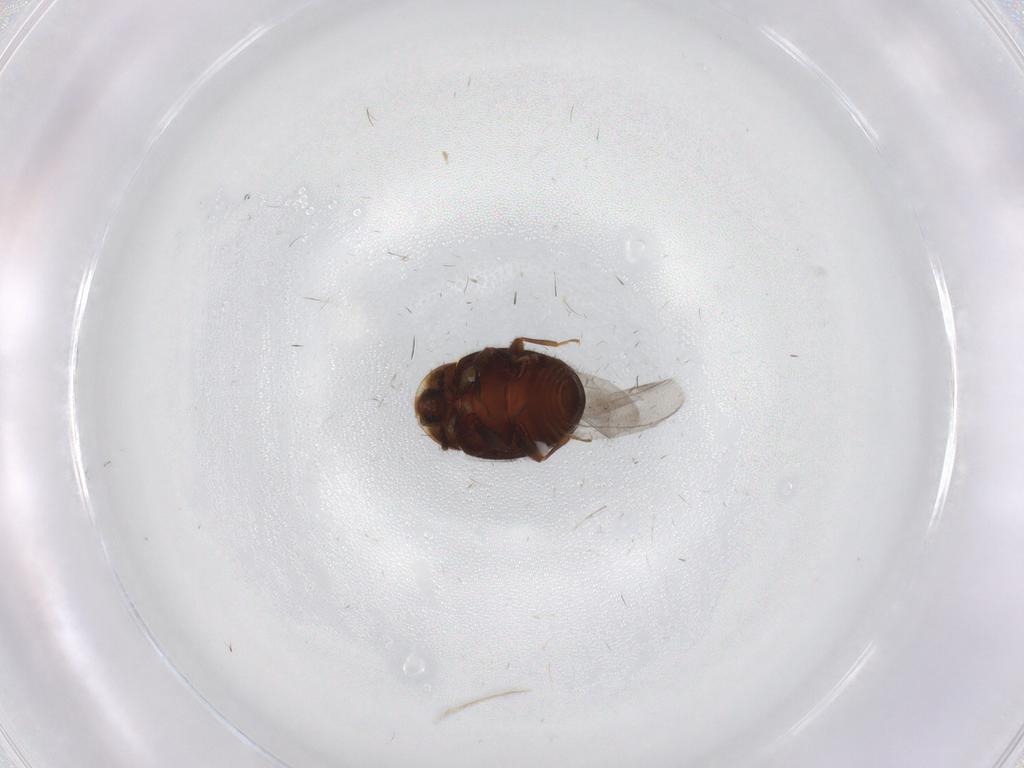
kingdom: Animalia
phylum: Arthropoda
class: Insecta
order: Coleoptera
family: Corylophidae
